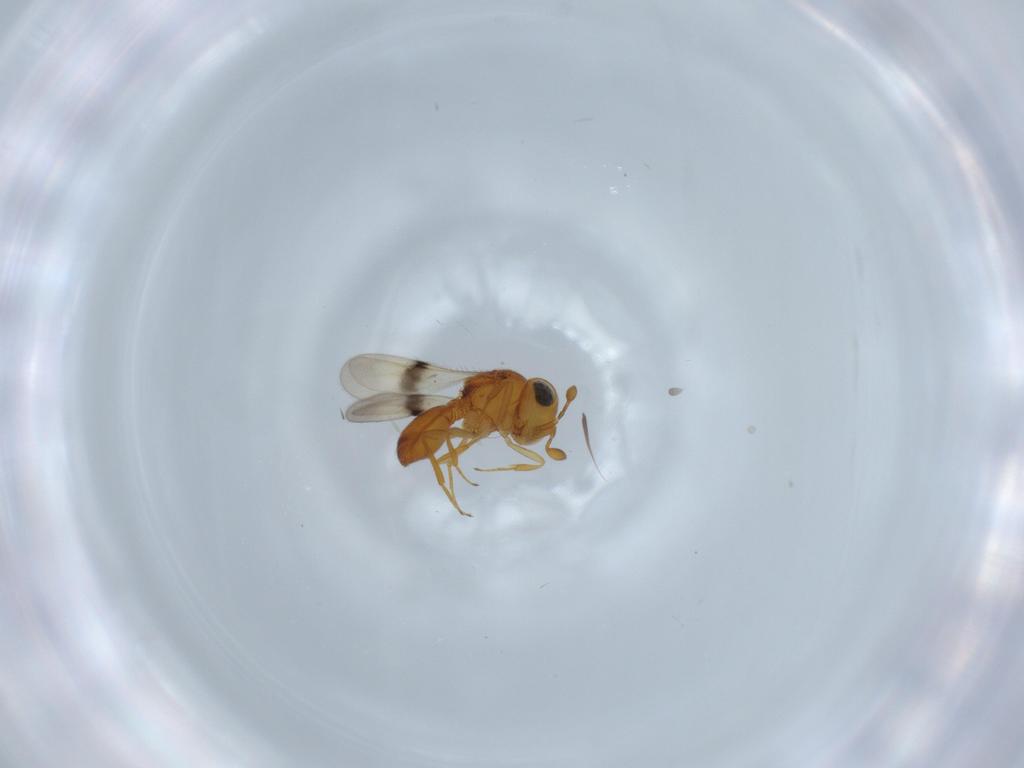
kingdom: Animalia
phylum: Arthropoda
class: Insecta
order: Hymenoptera
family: Scelionidae
